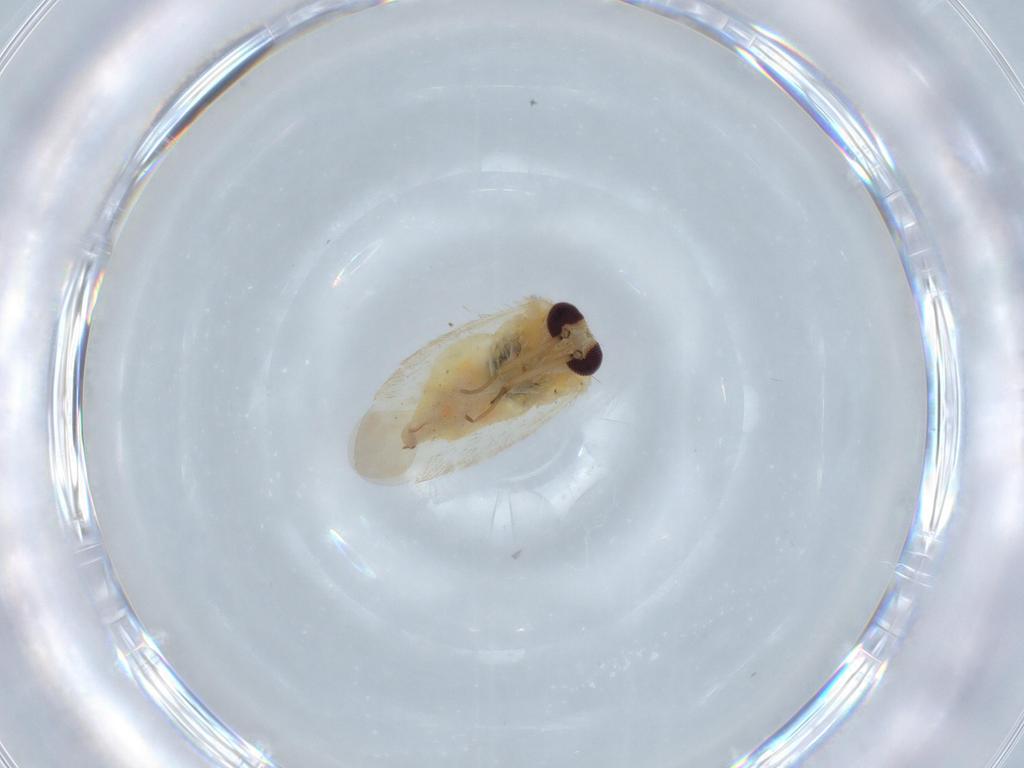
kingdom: Animalia
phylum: Arthropoda
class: Insecta
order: Hemiptera
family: Miridae
